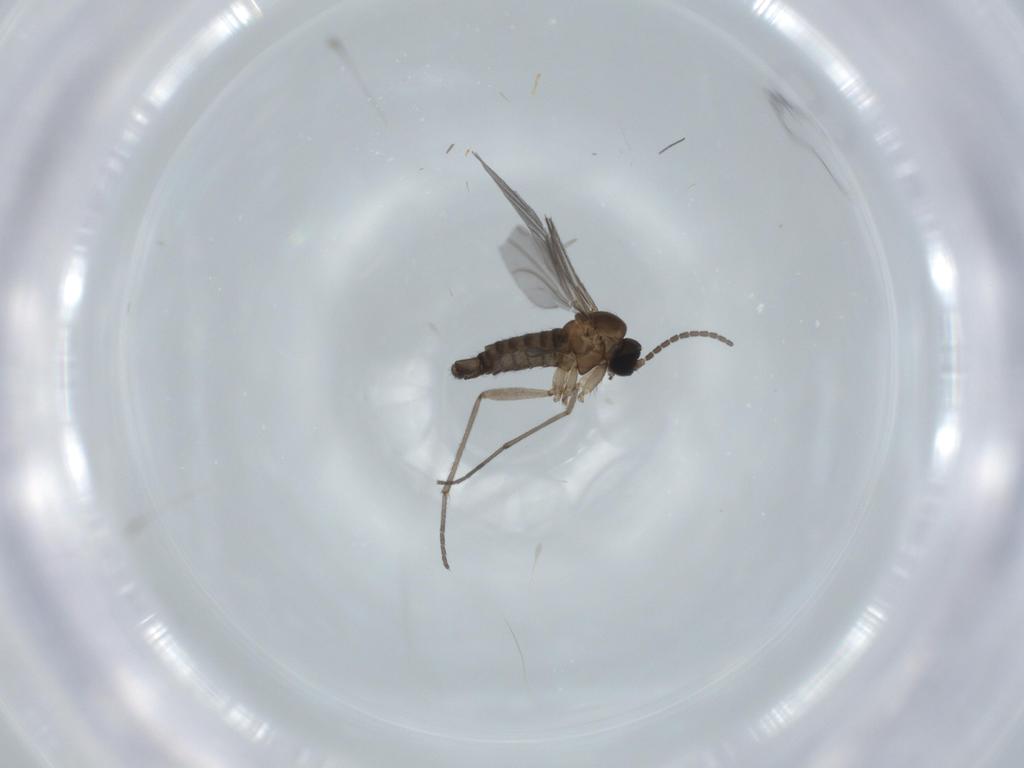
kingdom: Animalia
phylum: Arthropoda
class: Insecta
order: Diptera
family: Sciaridae
